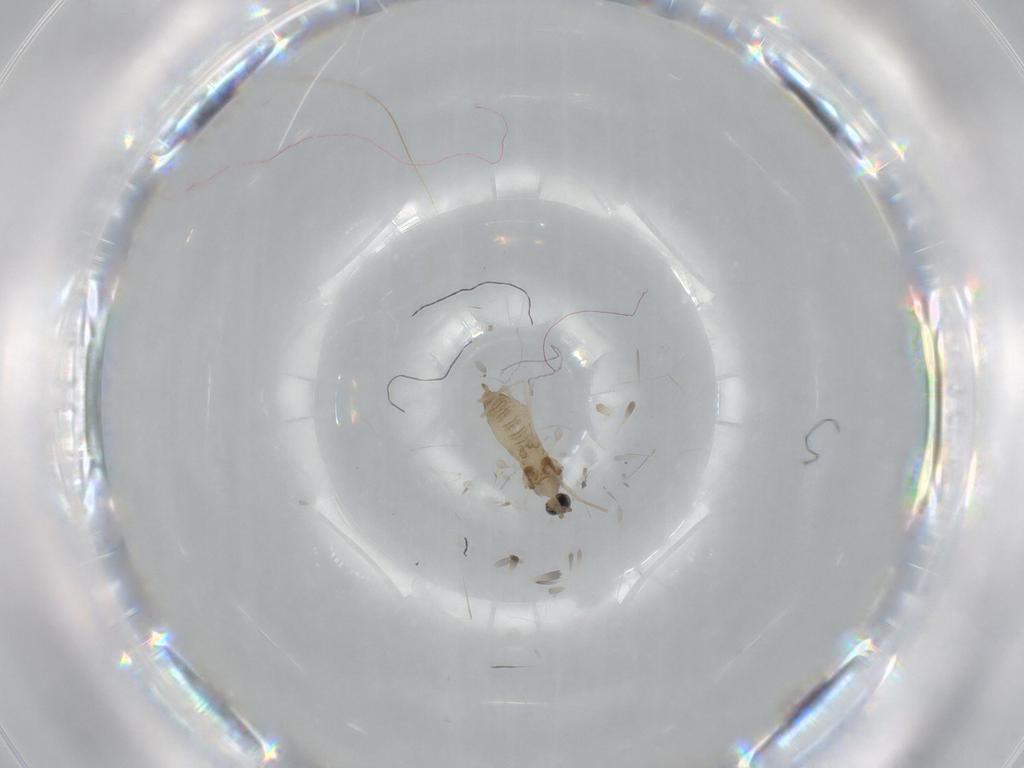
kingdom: Animalia
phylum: Arthropoda
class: Insecta
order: Diptera
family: Cecidomyiidae
